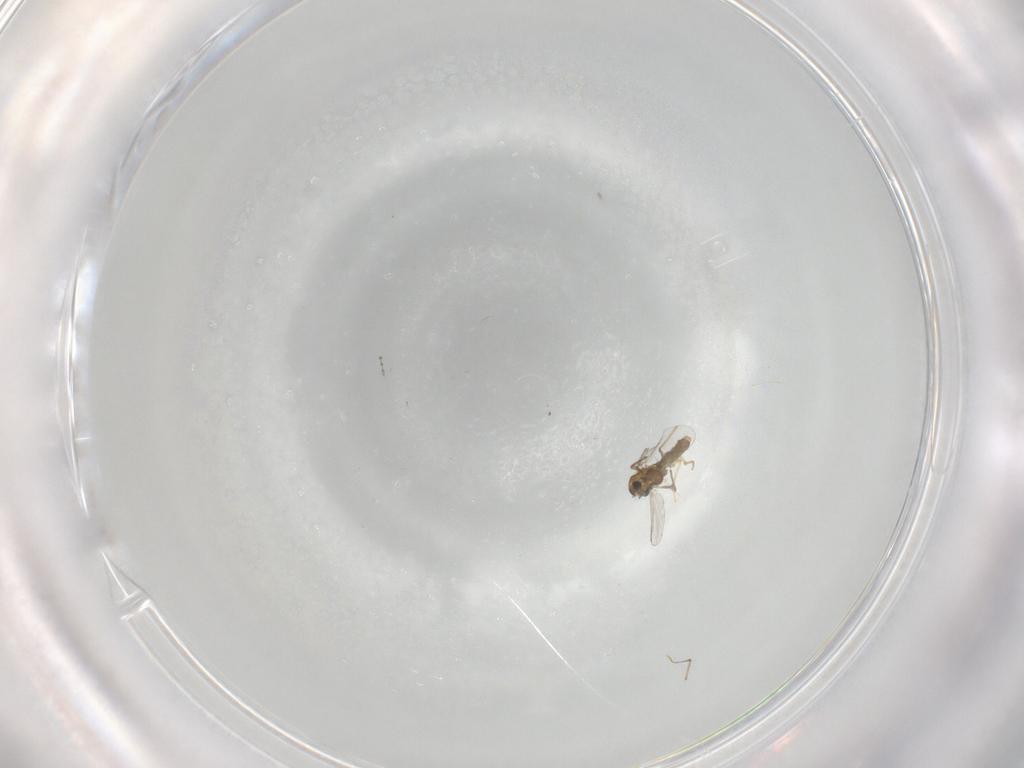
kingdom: Animalia
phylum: Arthropoda
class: Insecta
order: Diptera
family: Chironomidae
